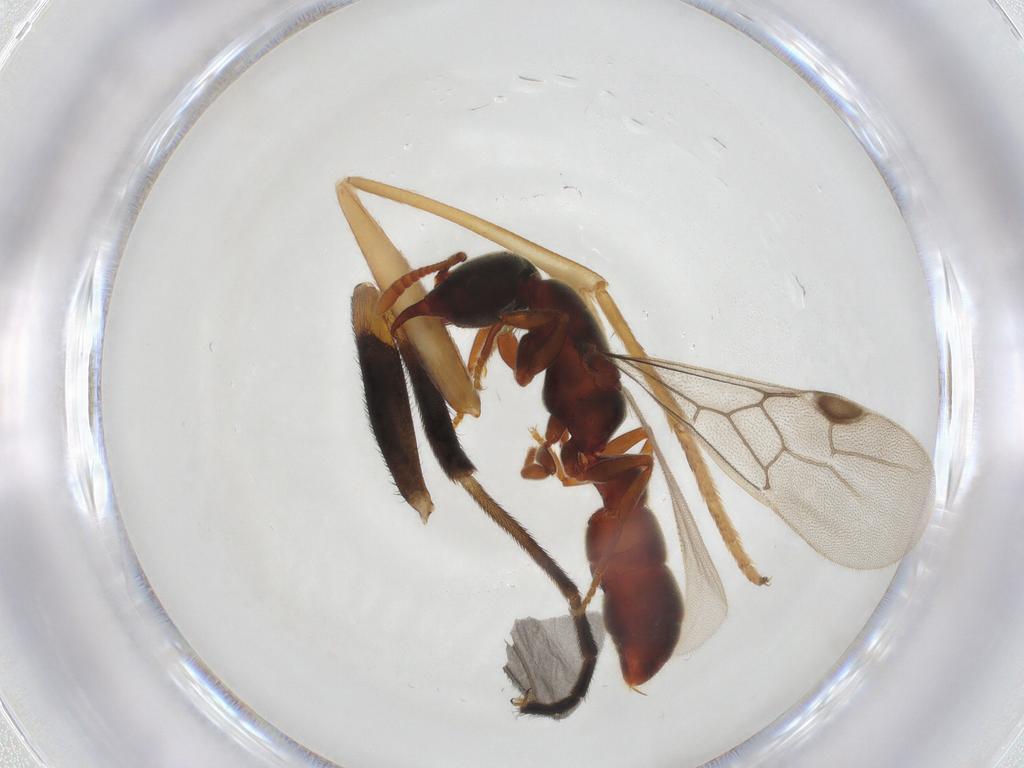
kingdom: Animalia
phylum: Arthropoda
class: Insecta
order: Hymenoptera
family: Formicidae
